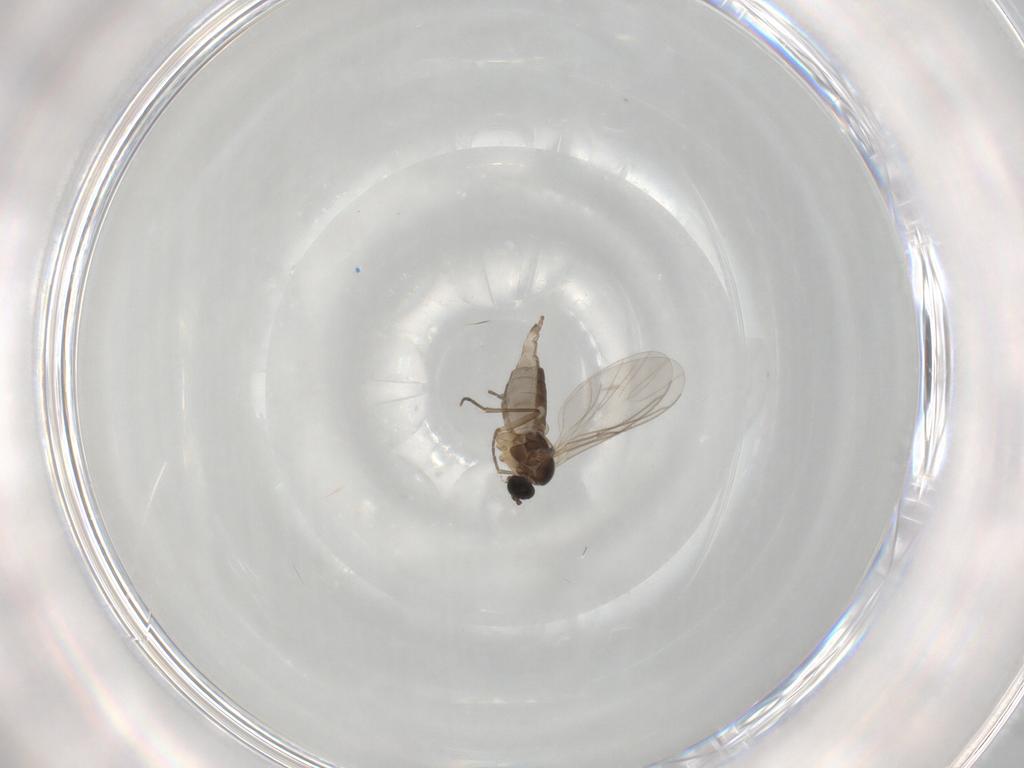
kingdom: Animalia
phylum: Arthropoda
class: Insecta
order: Diptera
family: Sciaridae
